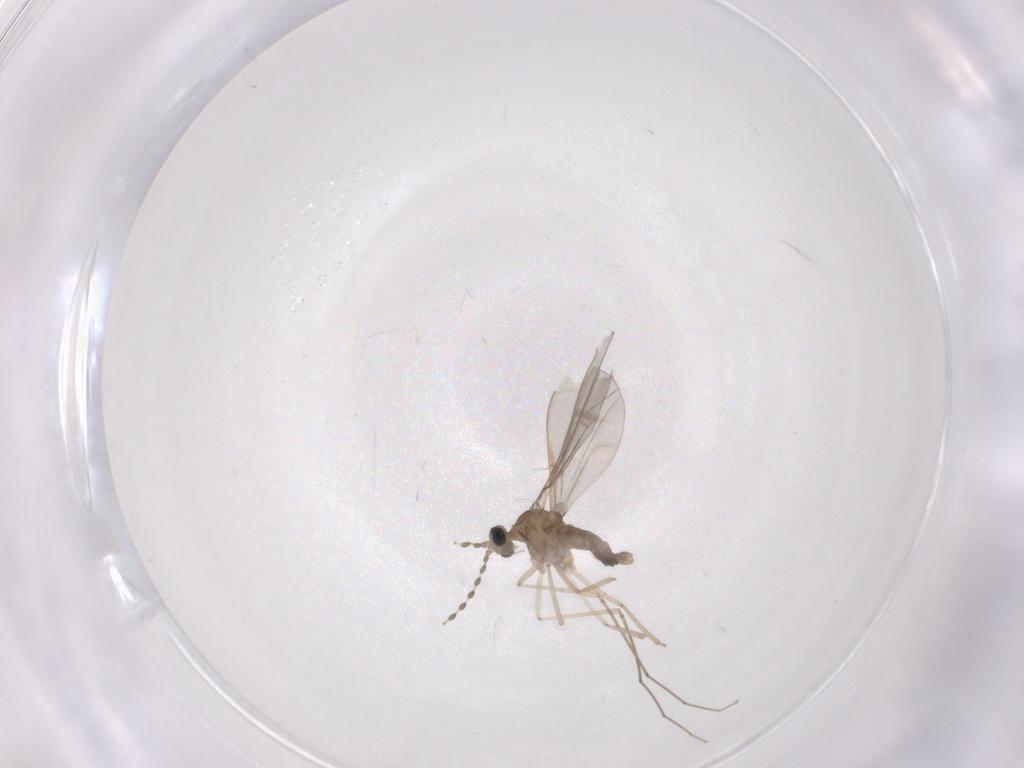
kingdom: Animalia
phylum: Arthropoda
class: Insecta
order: Diptera
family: Cecidomyiidae
